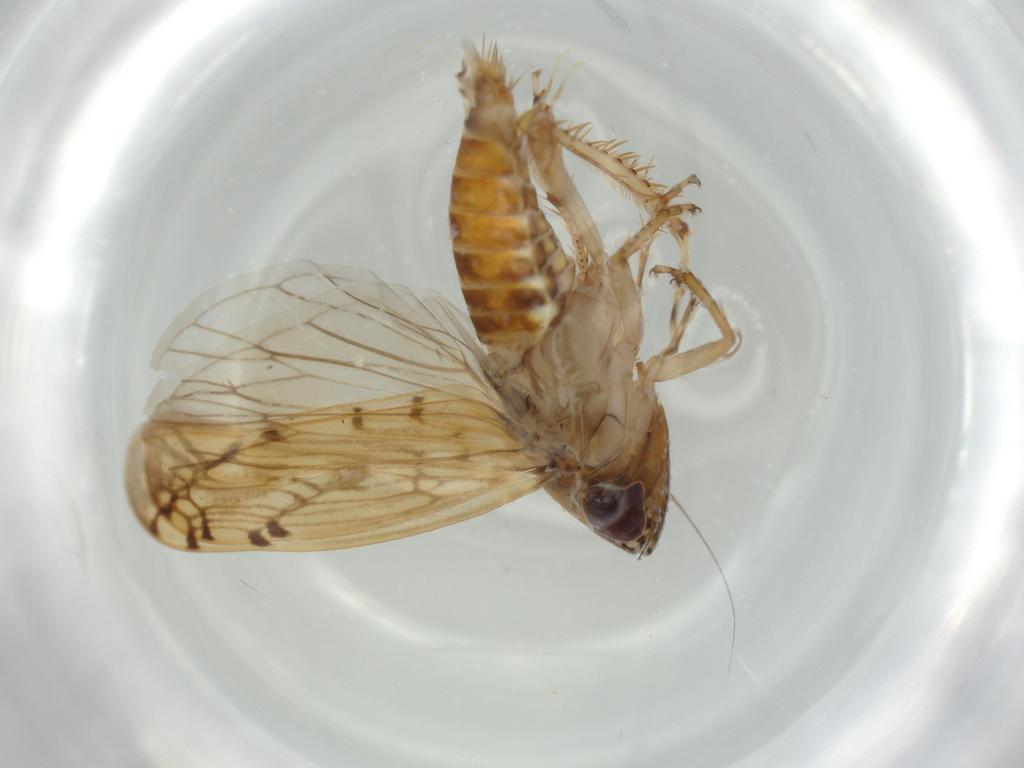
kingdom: Animalia
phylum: Arthropoda
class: Insecta
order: Hemiptera
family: Cicadellidae
